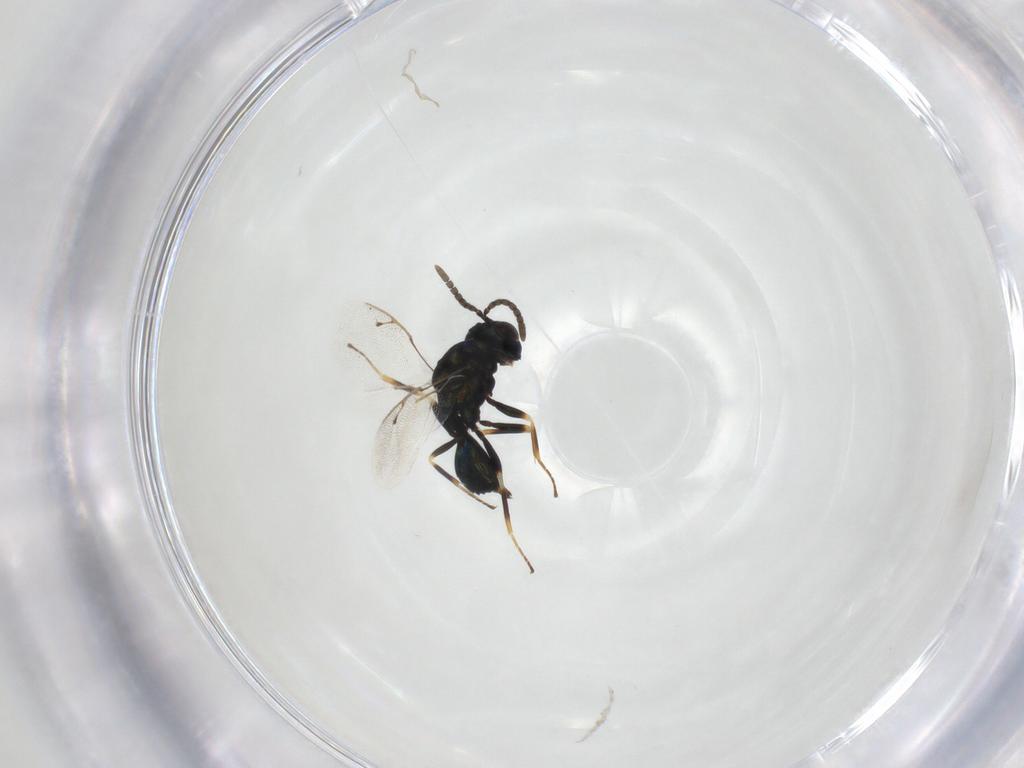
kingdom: Animalia
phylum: Arthropoda
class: Insecta
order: Hymenoptera
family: Pteromalidae
